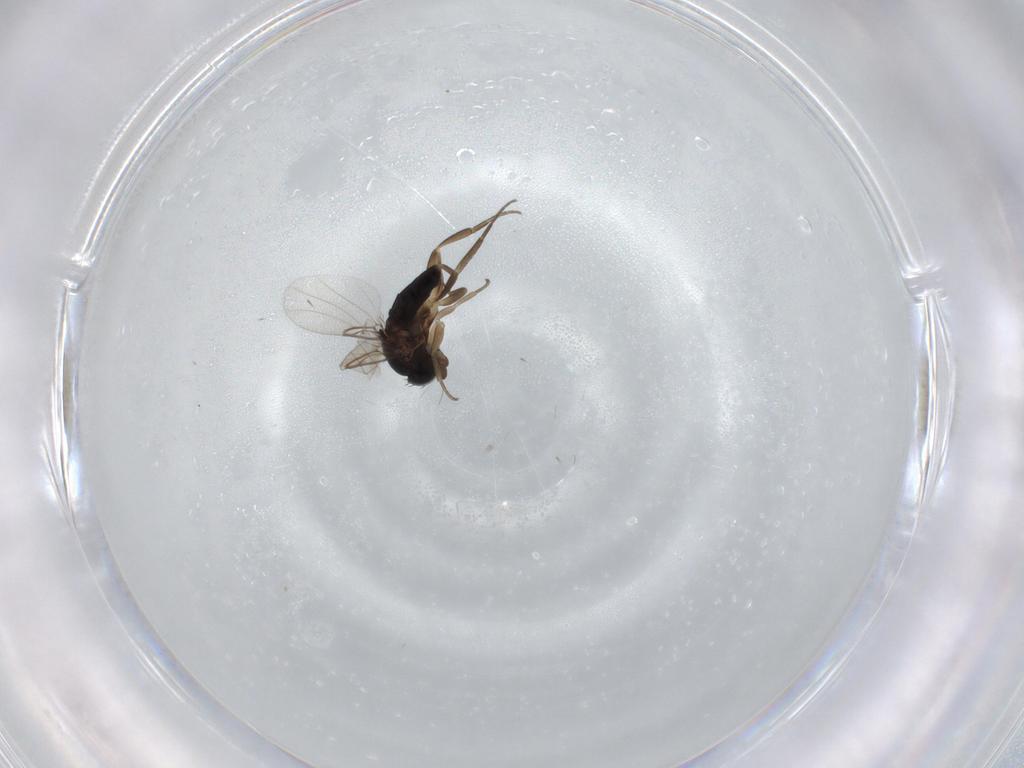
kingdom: Animalia
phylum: Arthropoda
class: Insecta
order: Diptera
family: Phoridae
